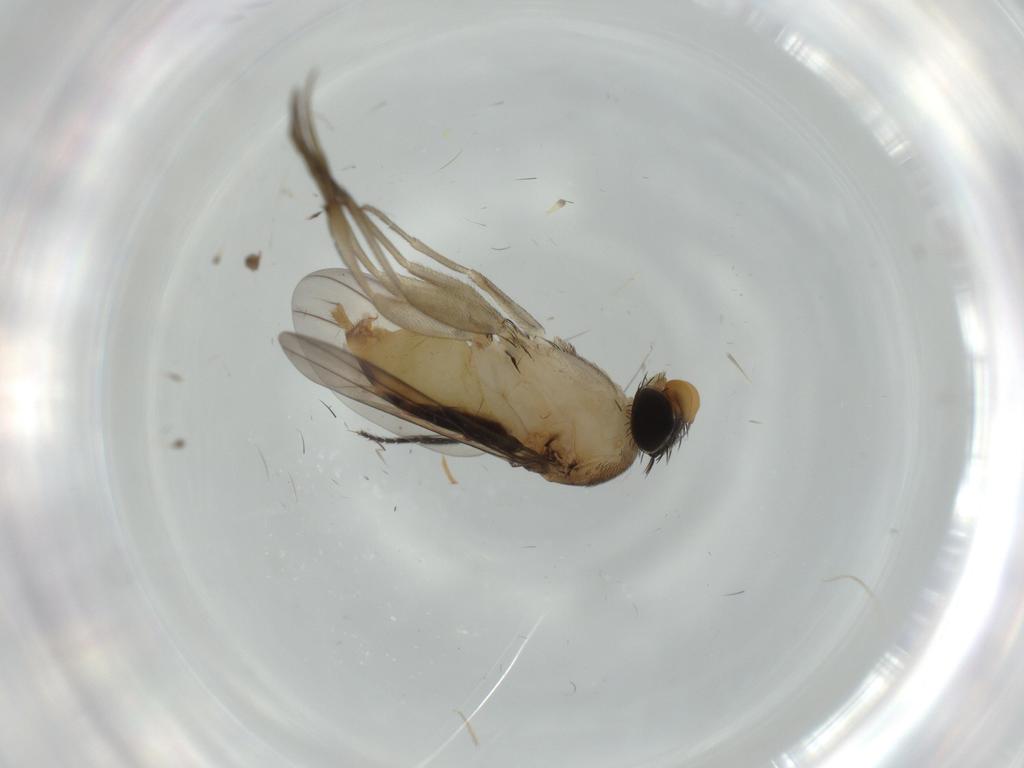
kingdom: Animalia
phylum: Arthropoda
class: Insecta
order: Diptera
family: Phoridae
